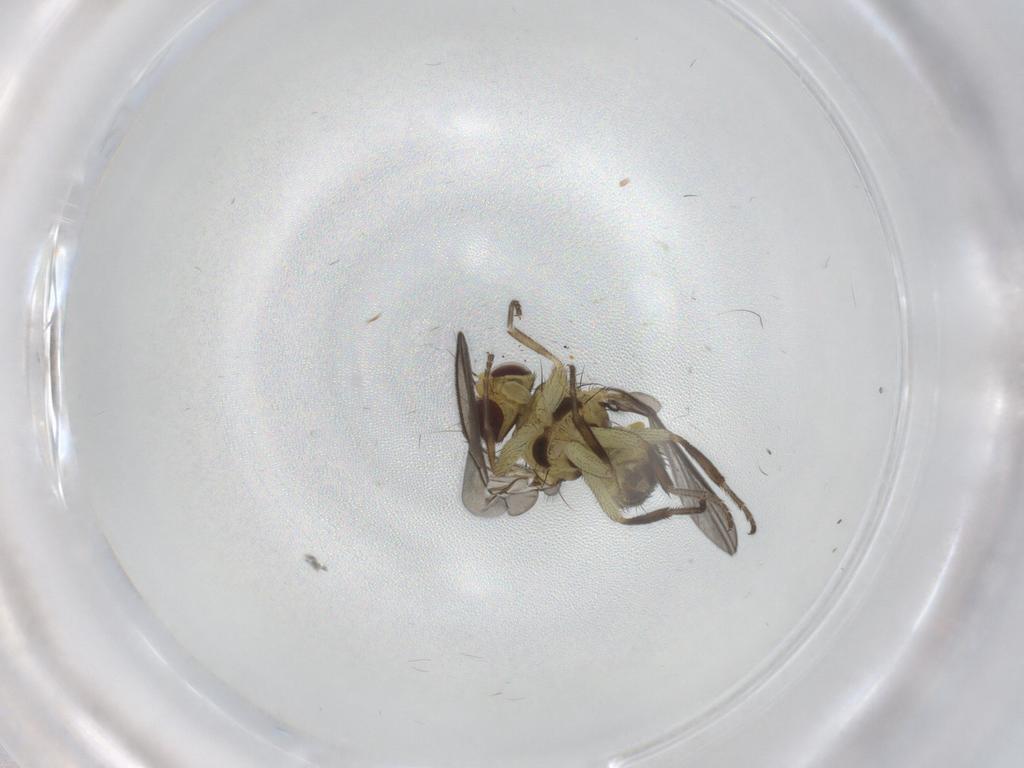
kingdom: Animalia
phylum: Arthropoda
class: Insecta
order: Diptera
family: Agromyzidae
